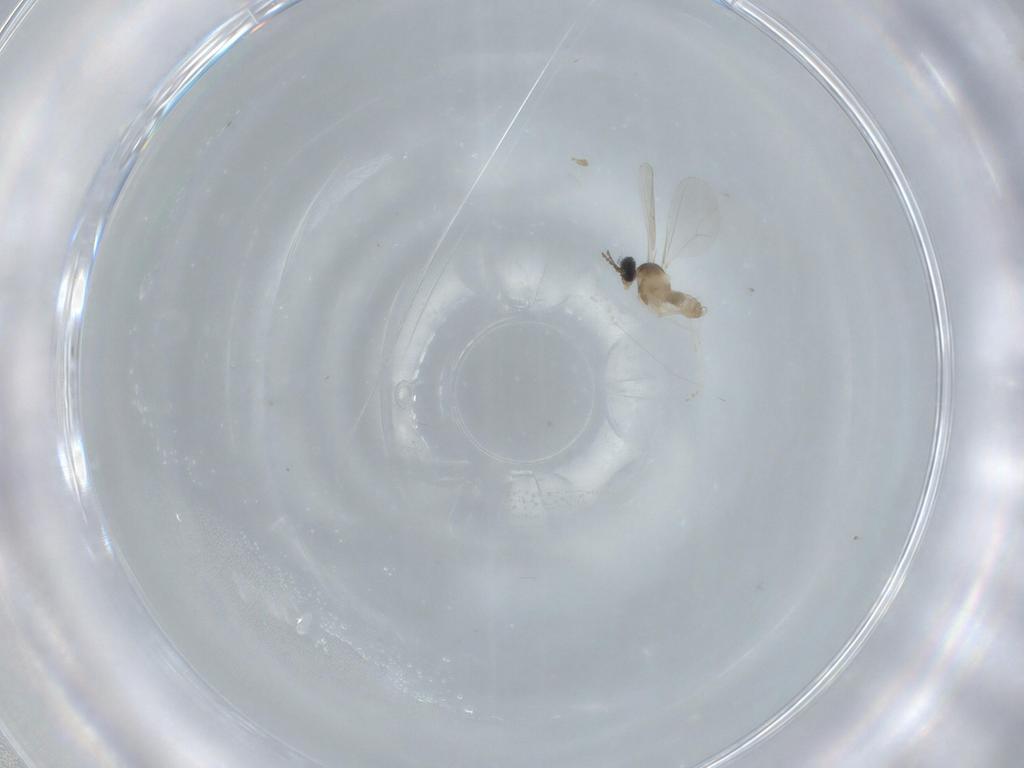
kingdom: Animalia
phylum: Arthropoda
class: Insecta
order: Diptera
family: Cecidomyiidae
